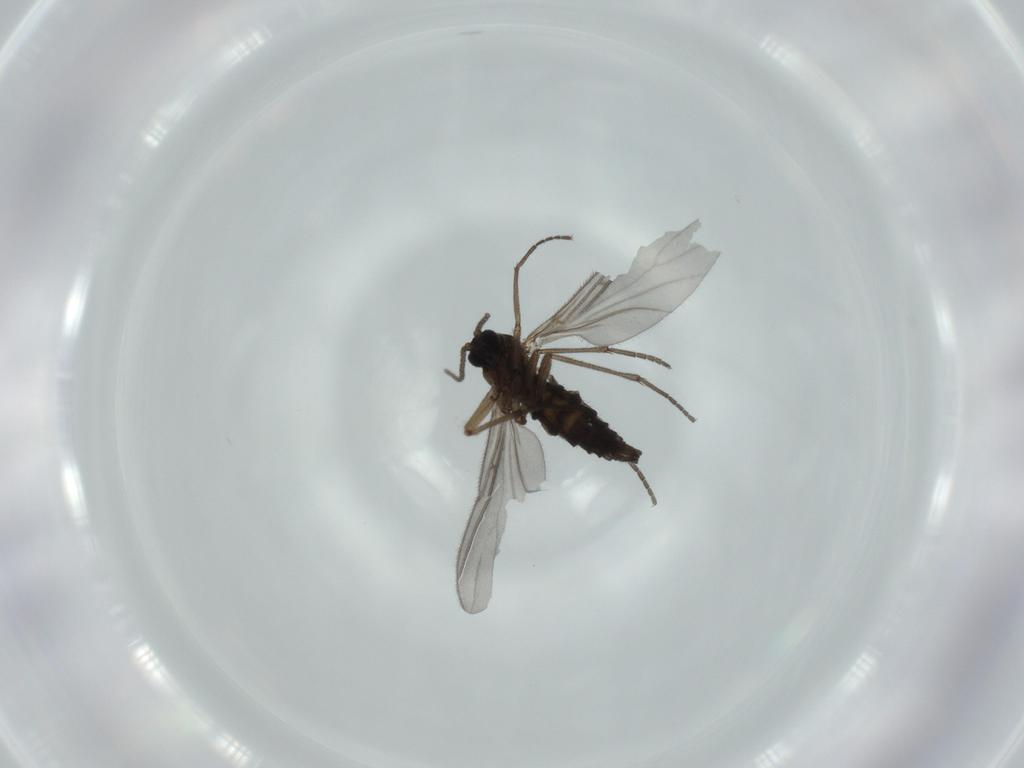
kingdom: Animalia
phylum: Arthropoda
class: Insecta
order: Diptera
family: Sciaridae
